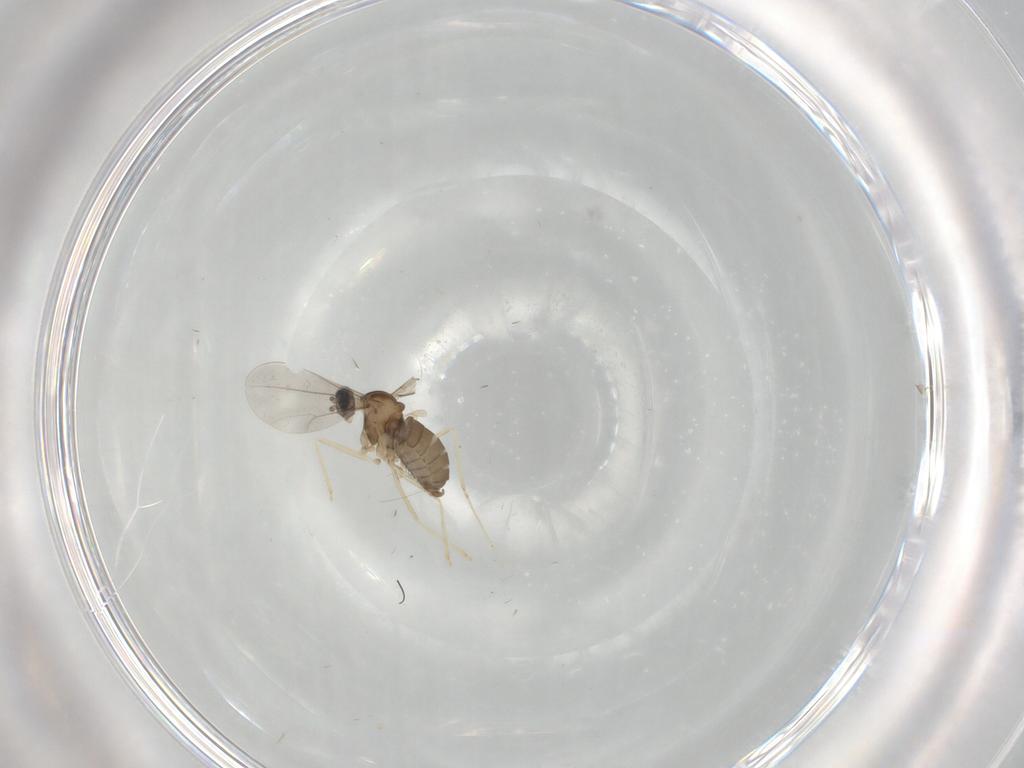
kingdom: Animalia
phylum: Arthropoda
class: Insecta
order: Diptera
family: Cecidomyiidae
